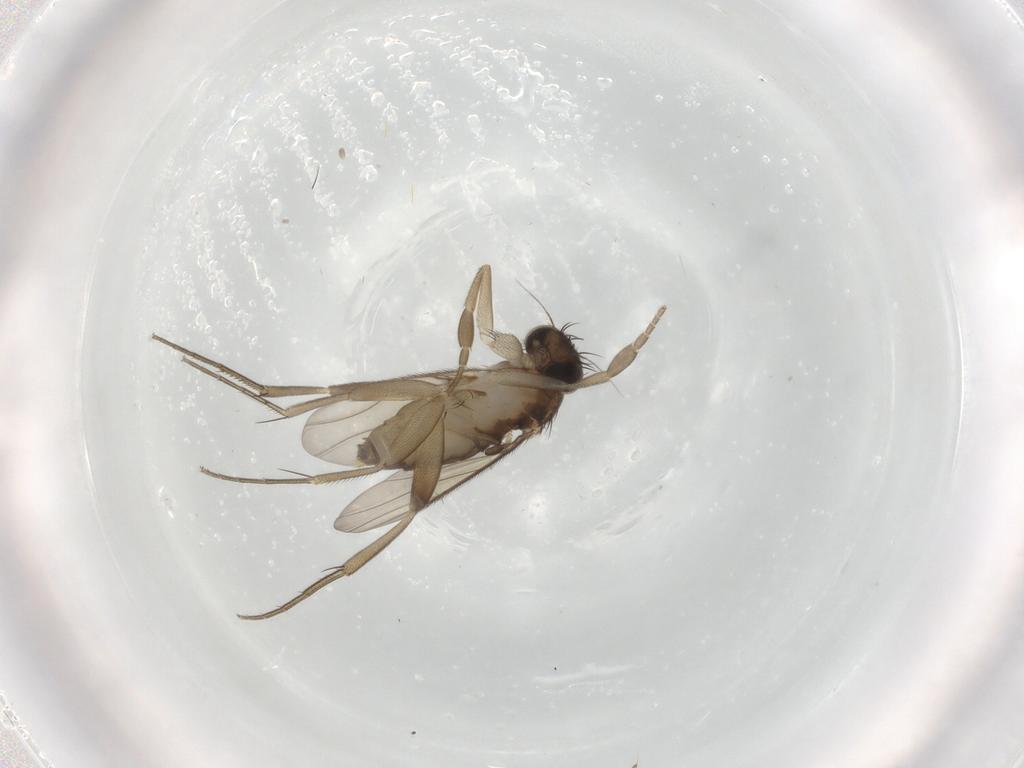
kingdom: Animalia
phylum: Arthropoda
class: Insecta
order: Diptera
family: Phoridae
